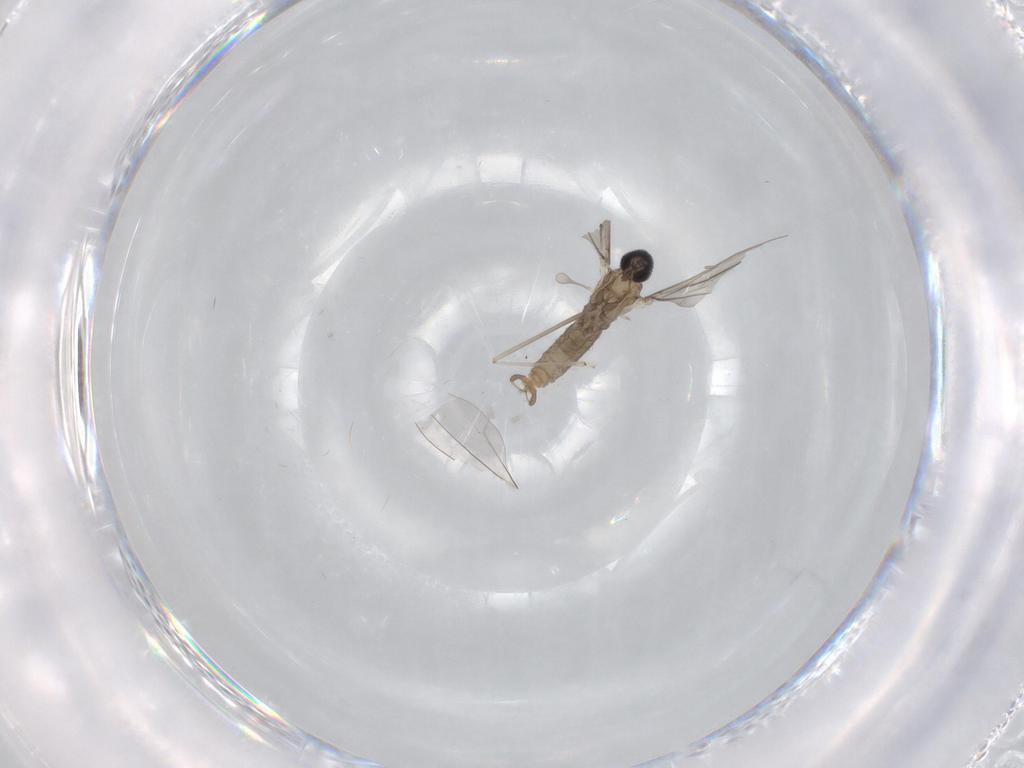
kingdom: Animalia
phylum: Arthropoda
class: Insecta
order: Diptera
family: Cecidomyiidae
